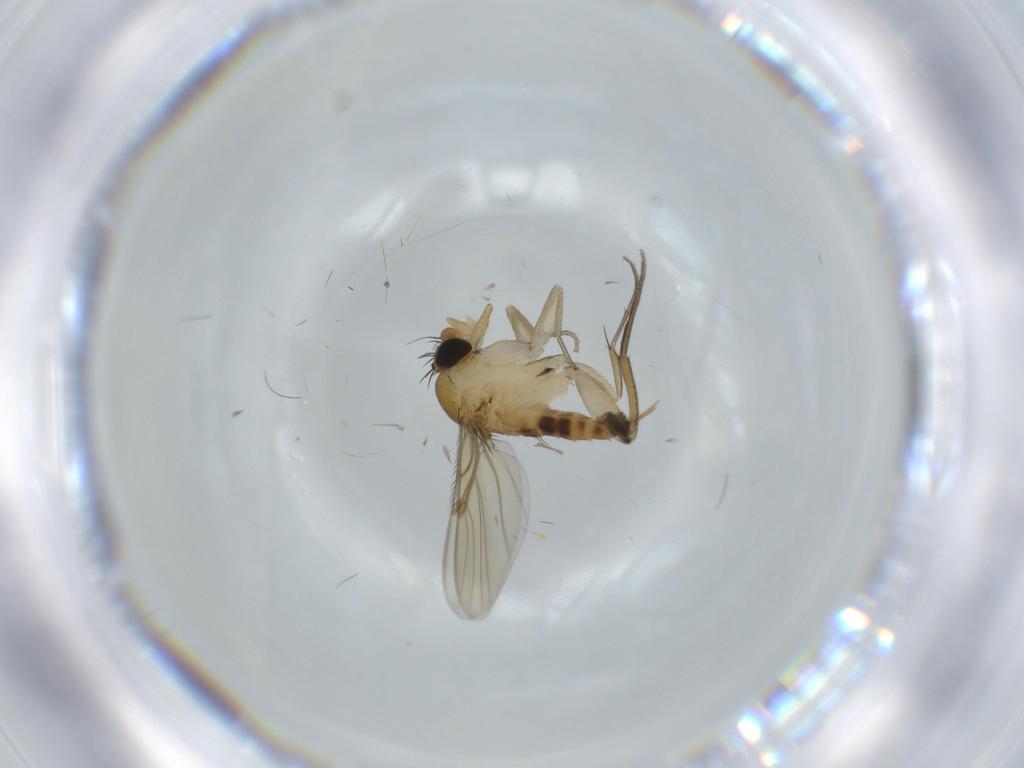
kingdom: Animalia
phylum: Arthropoda
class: Insecta
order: Diptera
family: Phoridae
